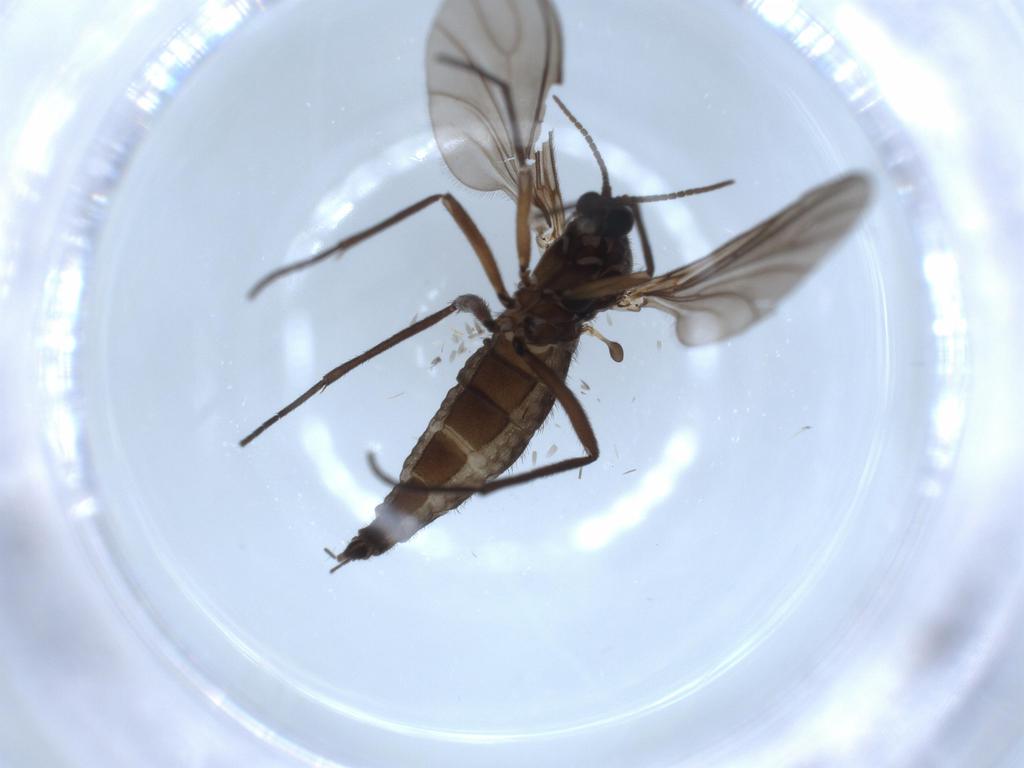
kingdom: Animalia
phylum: Arthropoda
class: Insecta
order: Diptera
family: Sciaridae
